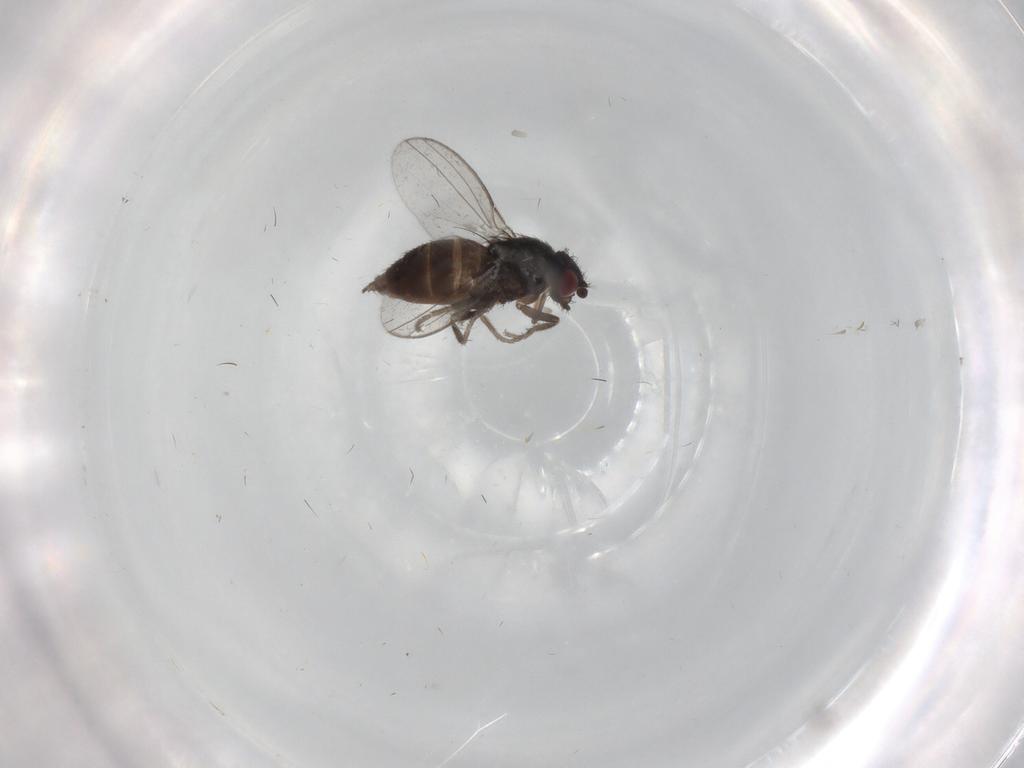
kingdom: Animalia
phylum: Arthropoda
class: Insecta
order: Diptera
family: Milichiidae
